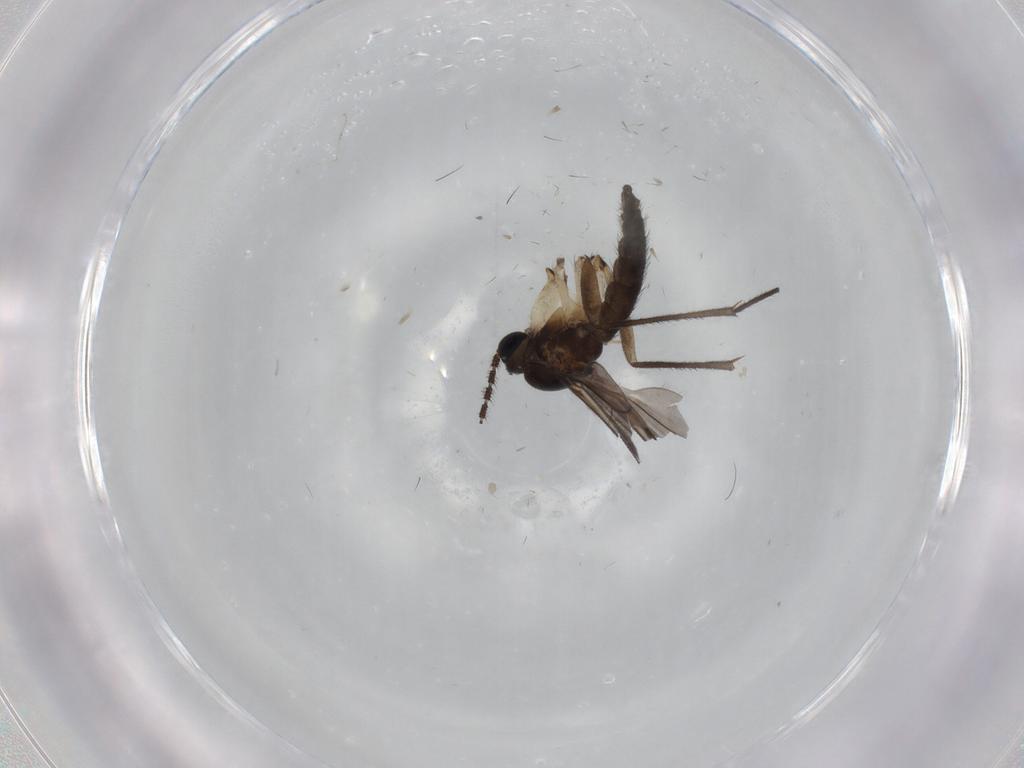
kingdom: Animalia
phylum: Arthropoda
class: Insecta
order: Diptera
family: Sciaridae
